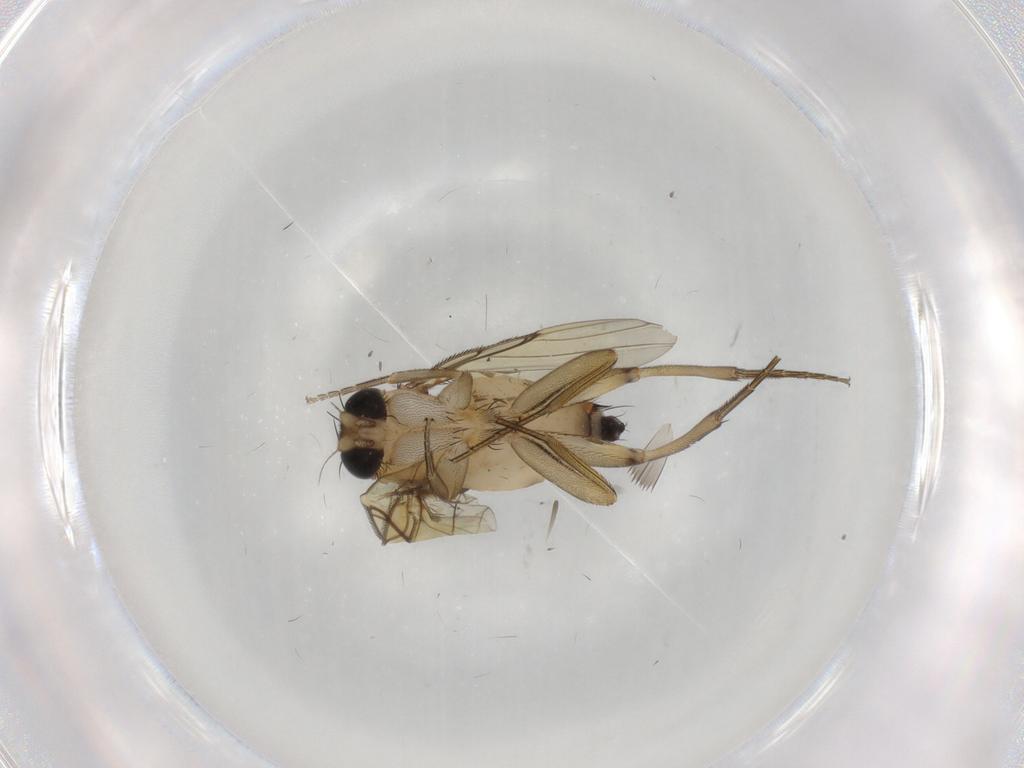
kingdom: Animalia
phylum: Arthropoda
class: Insecta
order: Diptera
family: Phoridae
